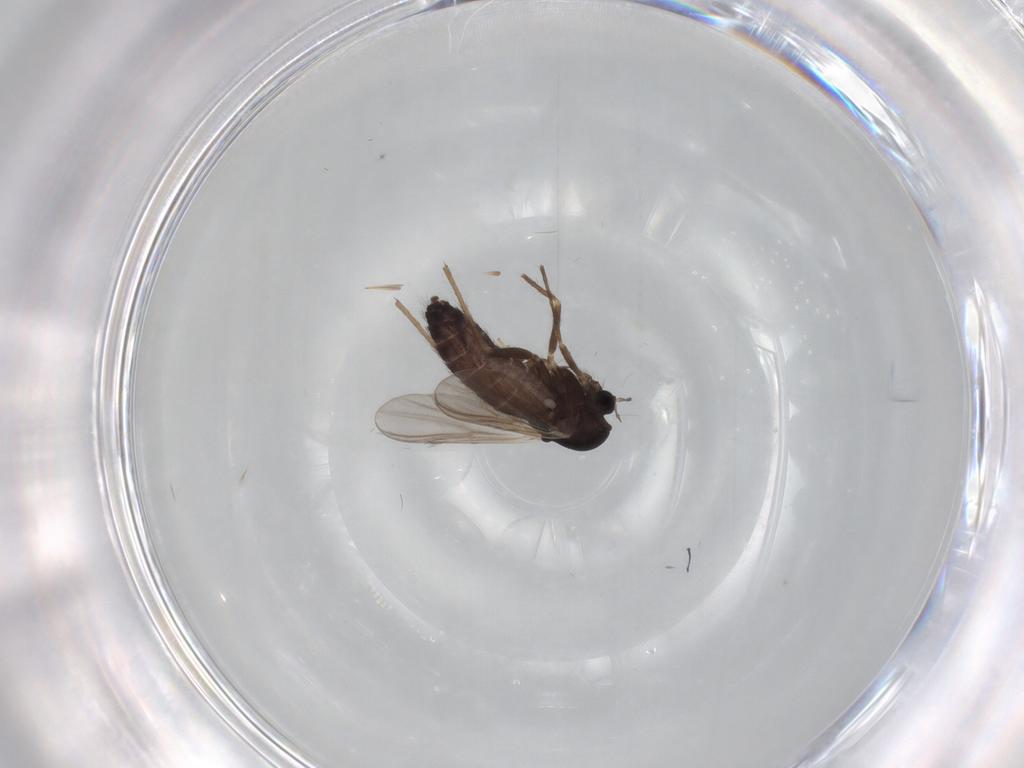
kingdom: Animalia
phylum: Arthropoda
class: Insecta
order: Diptera
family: Chironomidae
